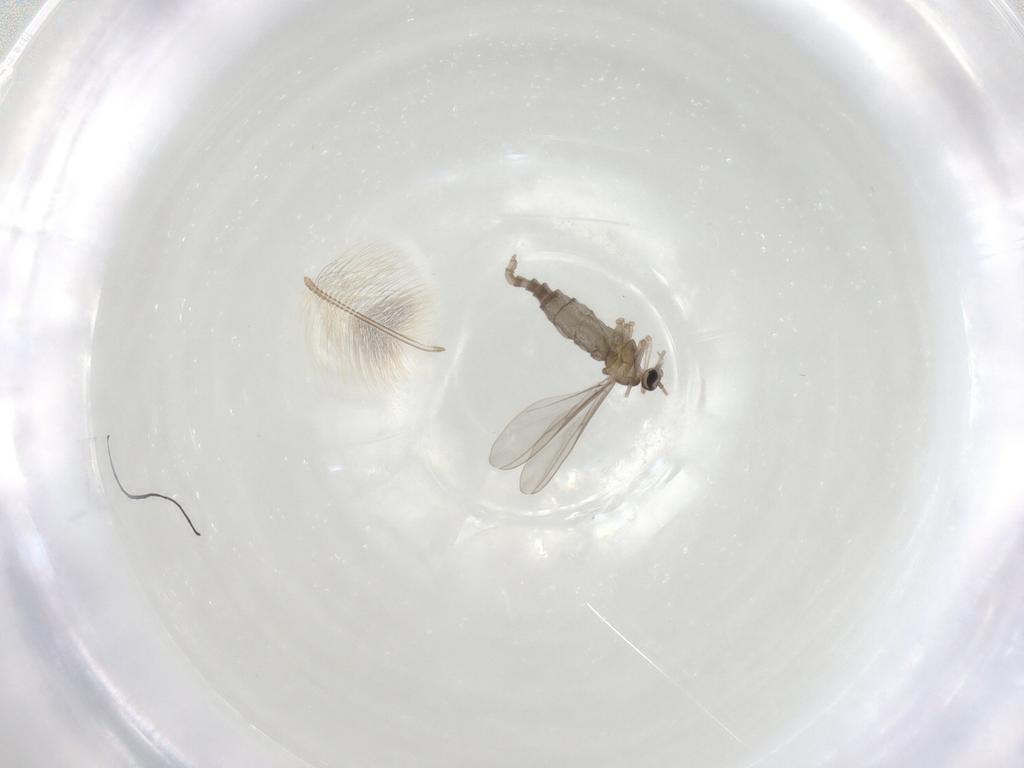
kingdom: Animalia
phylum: Arthropoda
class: Insecta
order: Diptera
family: Cecidomyiidae
